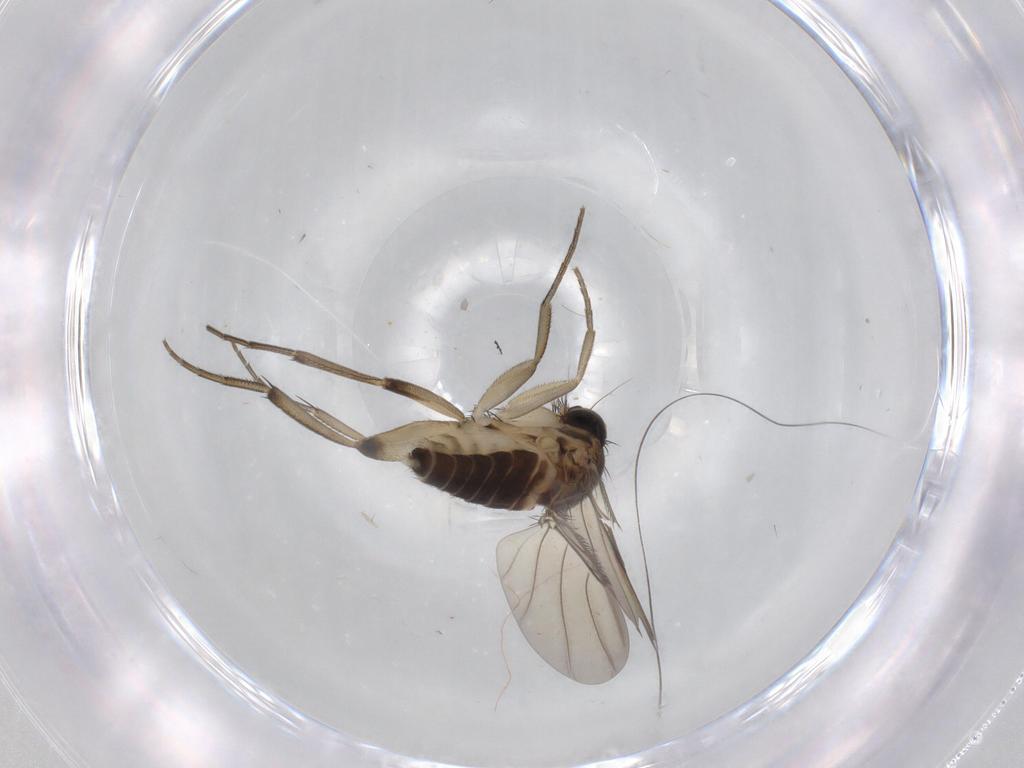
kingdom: Animalia
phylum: Arthropoda
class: Insecta
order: Diptera
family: Phoridae
